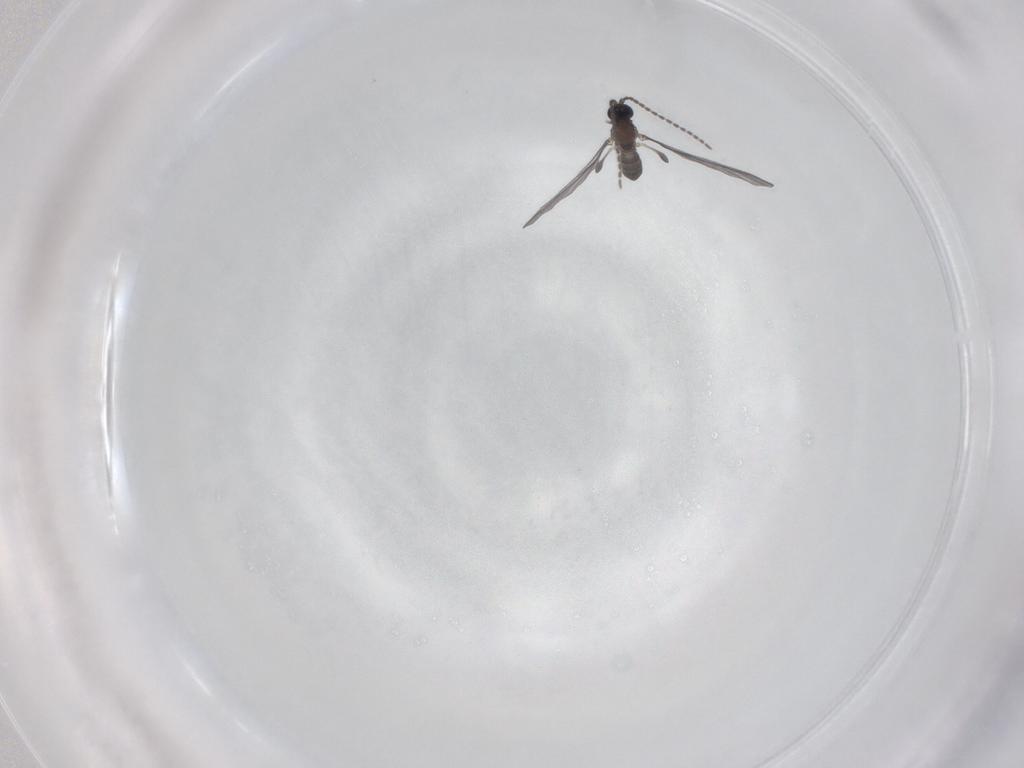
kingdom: Animalia
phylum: Arthropoda
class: Insecta
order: Diptera
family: Sciaridae
